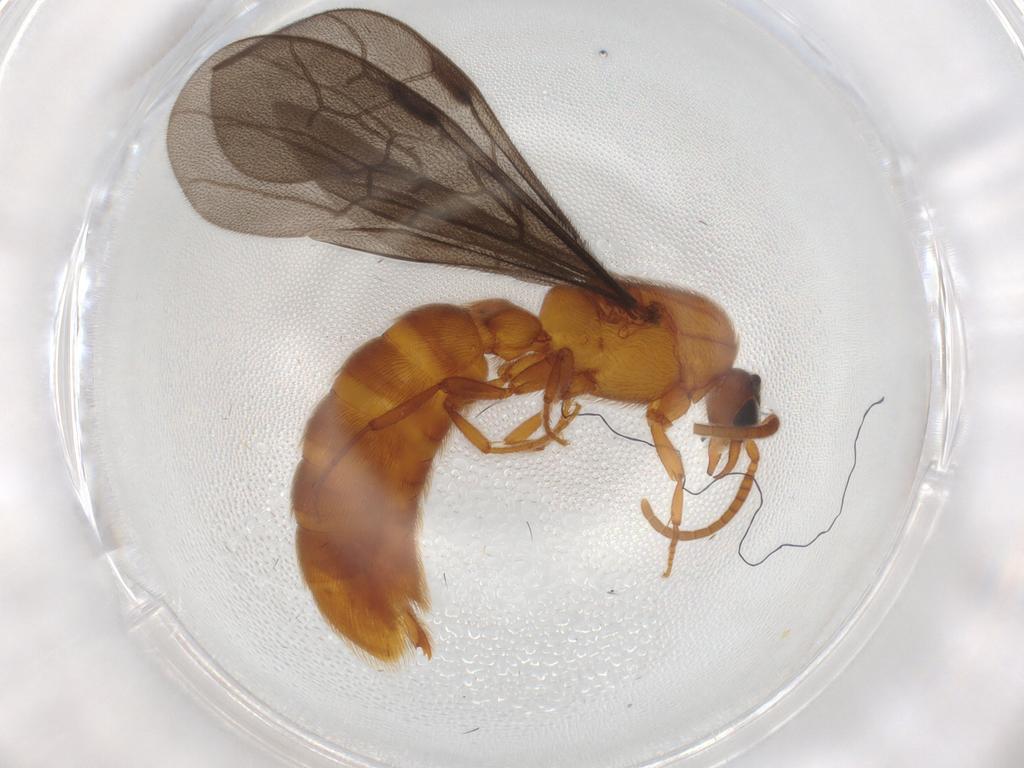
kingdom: Animalia
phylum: Arthropoda
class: Insecta
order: Hymenoptera
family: Formicidae
